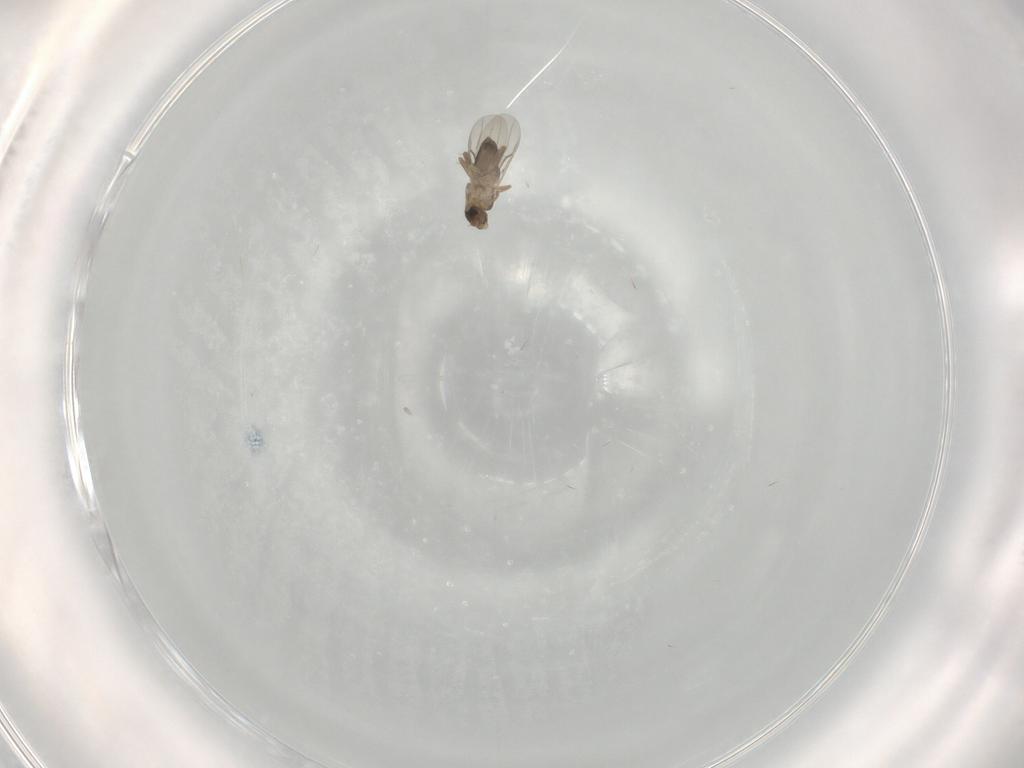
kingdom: Animalia
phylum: Arthropoda
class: Insecta
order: Diptera
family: Phoridae
